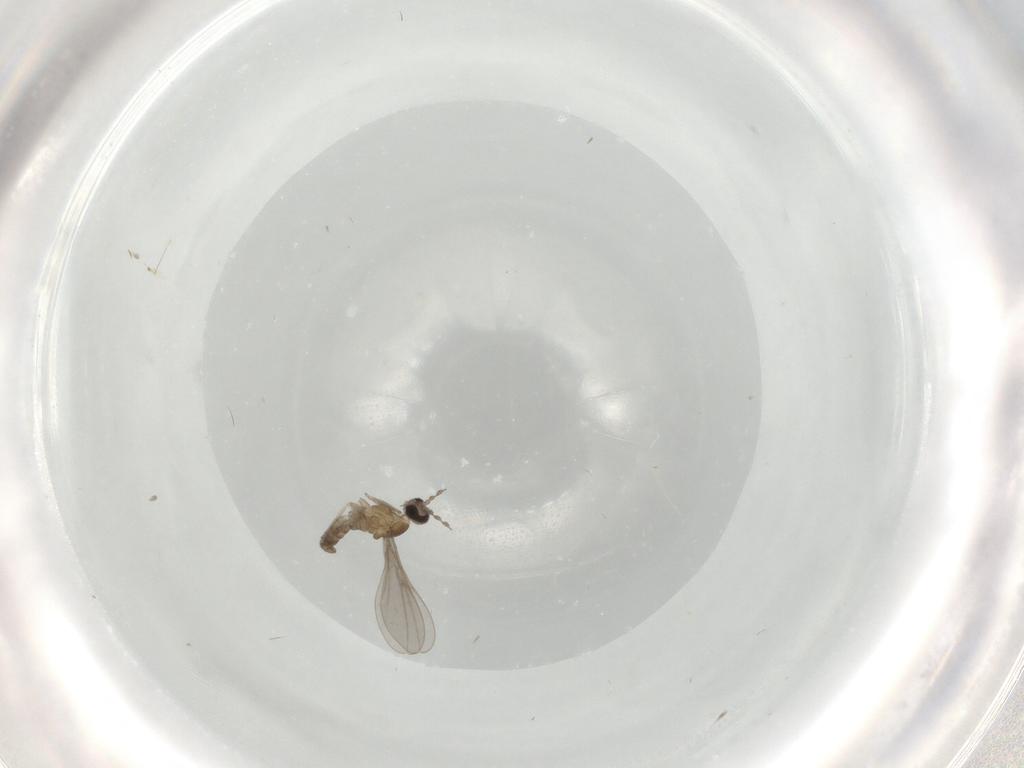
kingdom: Animalia
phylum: Arthropoda
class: Insecta
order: Diptera
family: Cecidomyiidae
